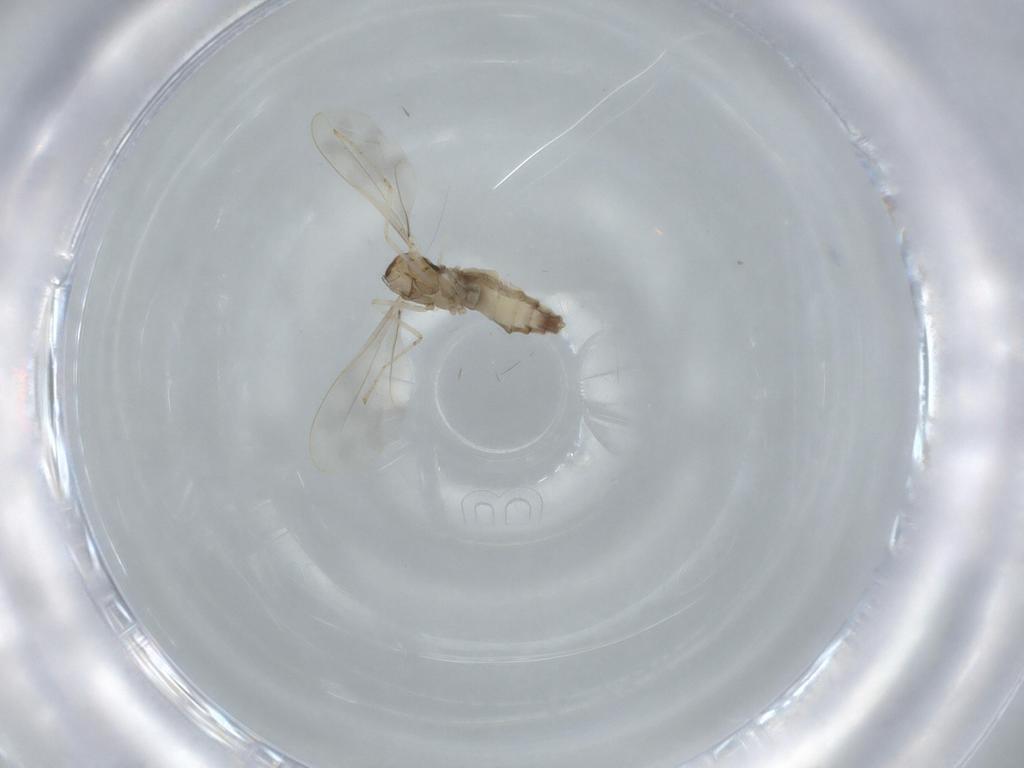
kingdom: Animalia
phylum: Arthropoda
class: Insecta
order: Diptera
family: Cecidomyiidae
